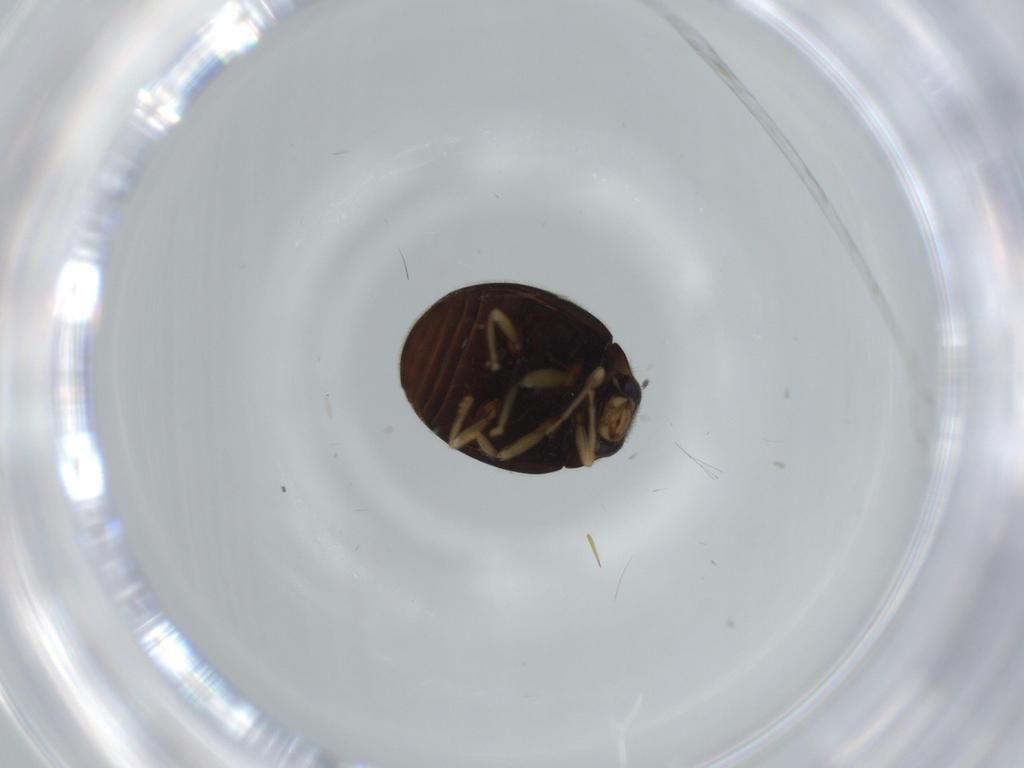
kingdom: Animalia
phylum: Arthropoda
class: Insecta
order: Coleoptera
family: Coccinellidae
